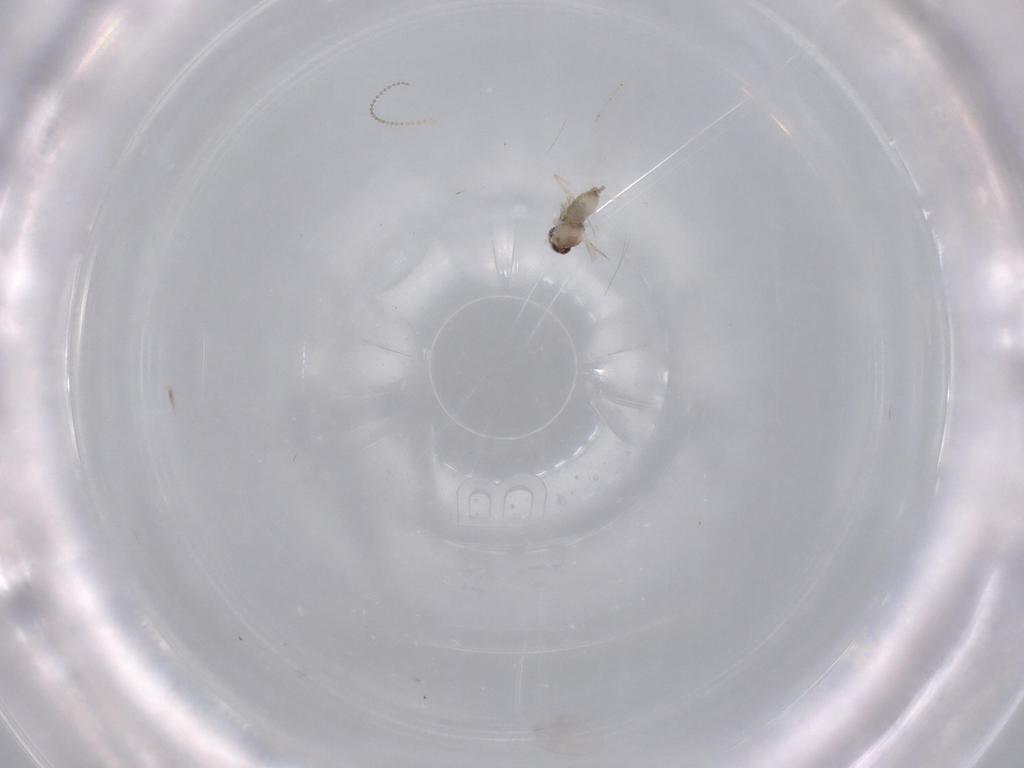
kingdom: Animalia
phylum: Arthropoda
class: Insecta
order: Diptera
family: Cecidomyiidae
